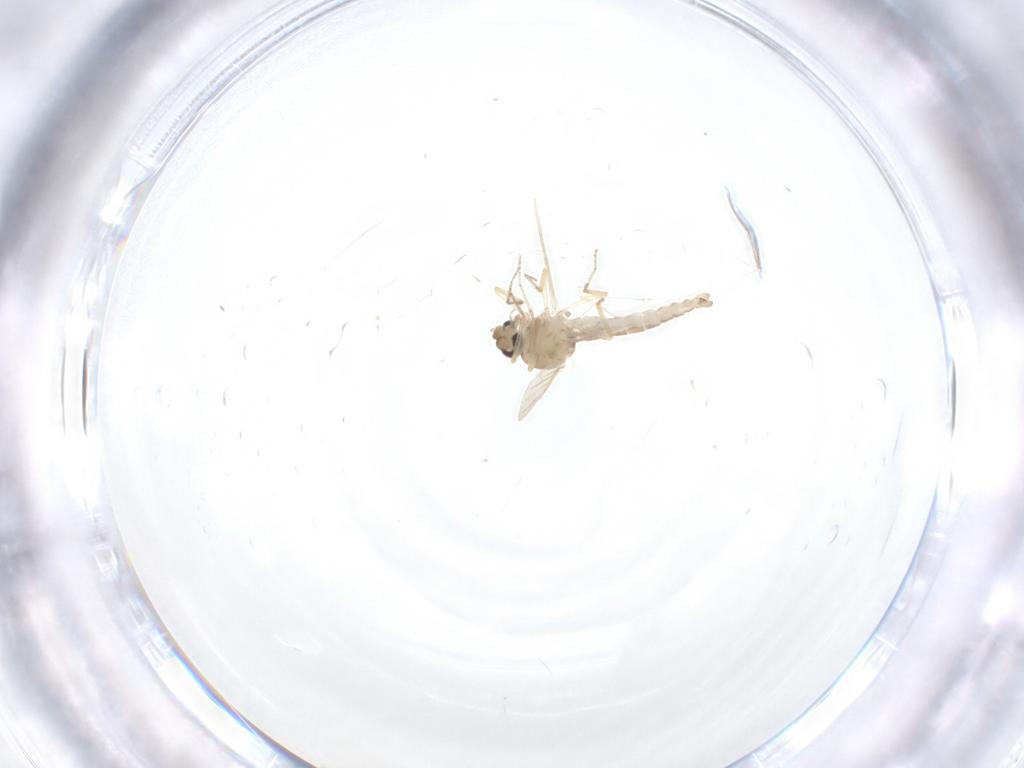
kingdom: Animalia
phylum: Arthropoda
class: Insecta
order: Diptera
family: Ceratopogonidae
